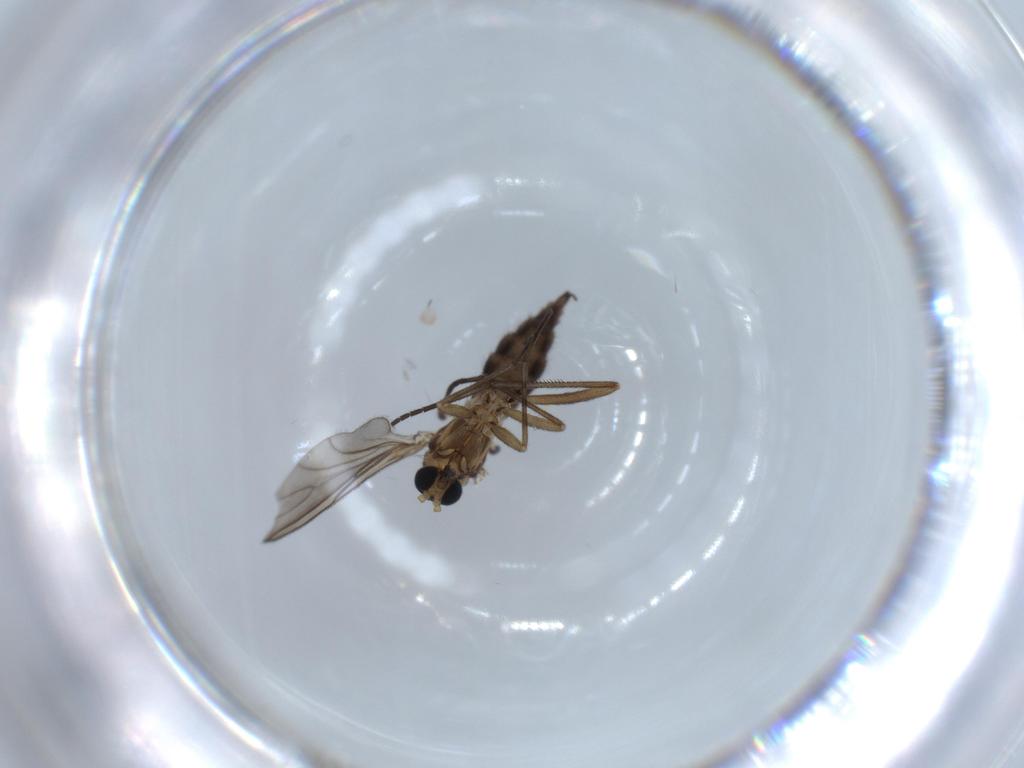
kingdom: Animalia
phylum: Arthropoda
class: Insecta
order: Diptera
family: Sciaridae
